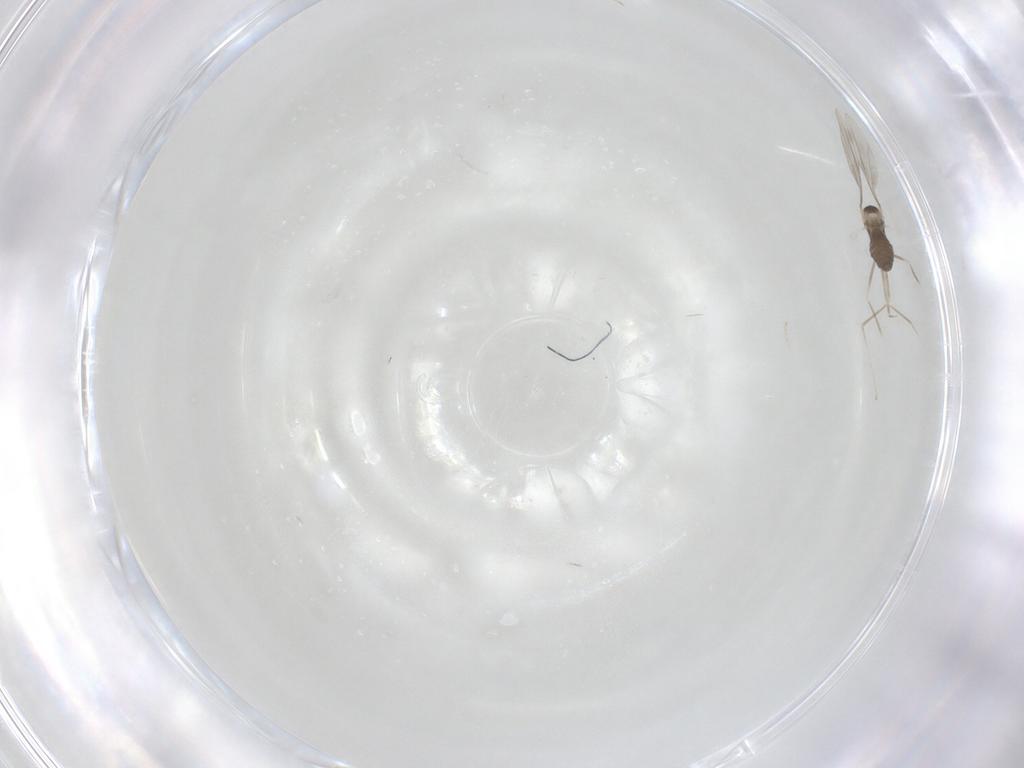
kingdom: Animalia
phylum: Arthropoda
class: Insecta
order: Diptera
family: Cecidomyiidae
